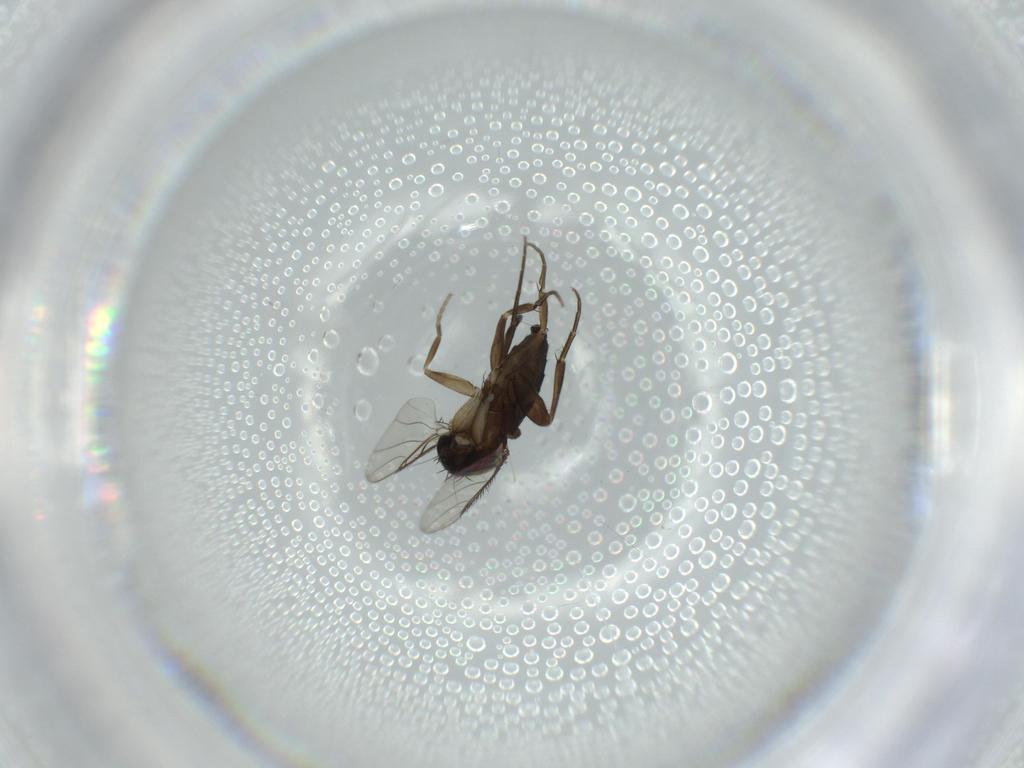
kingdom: Animalia
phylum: Arthropoda
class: Insecta
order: Diptera
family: Phoridae
